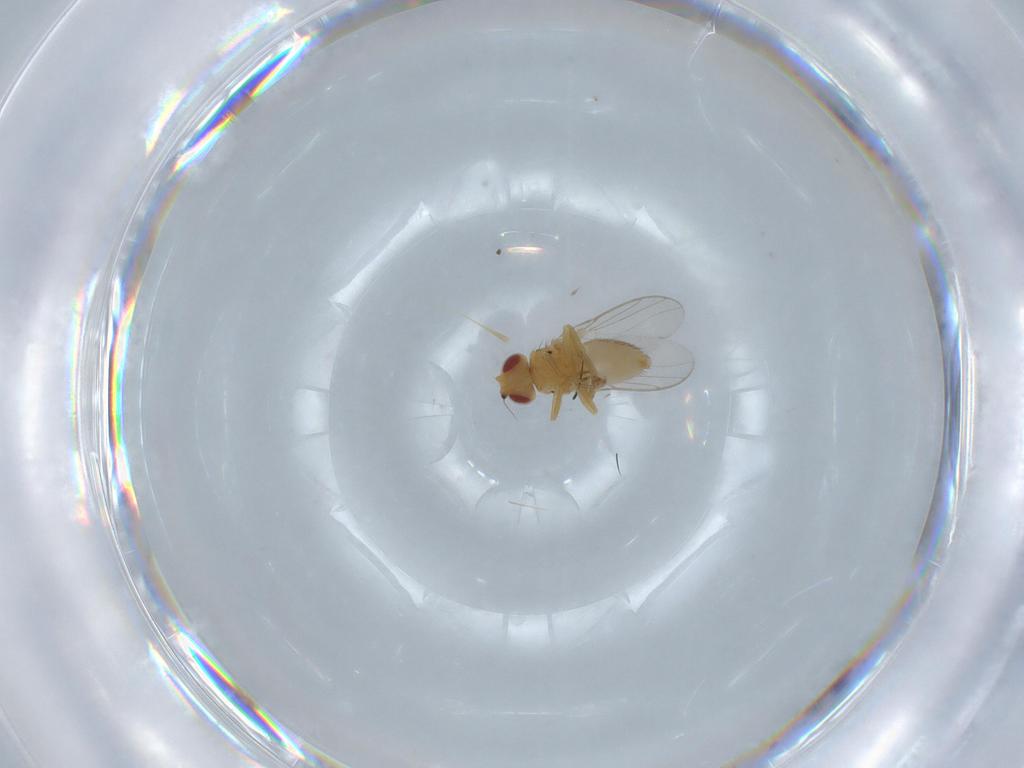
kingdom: Animalia
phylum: Arthropoda
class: Insecta
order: Diptera
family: Chloropidae
